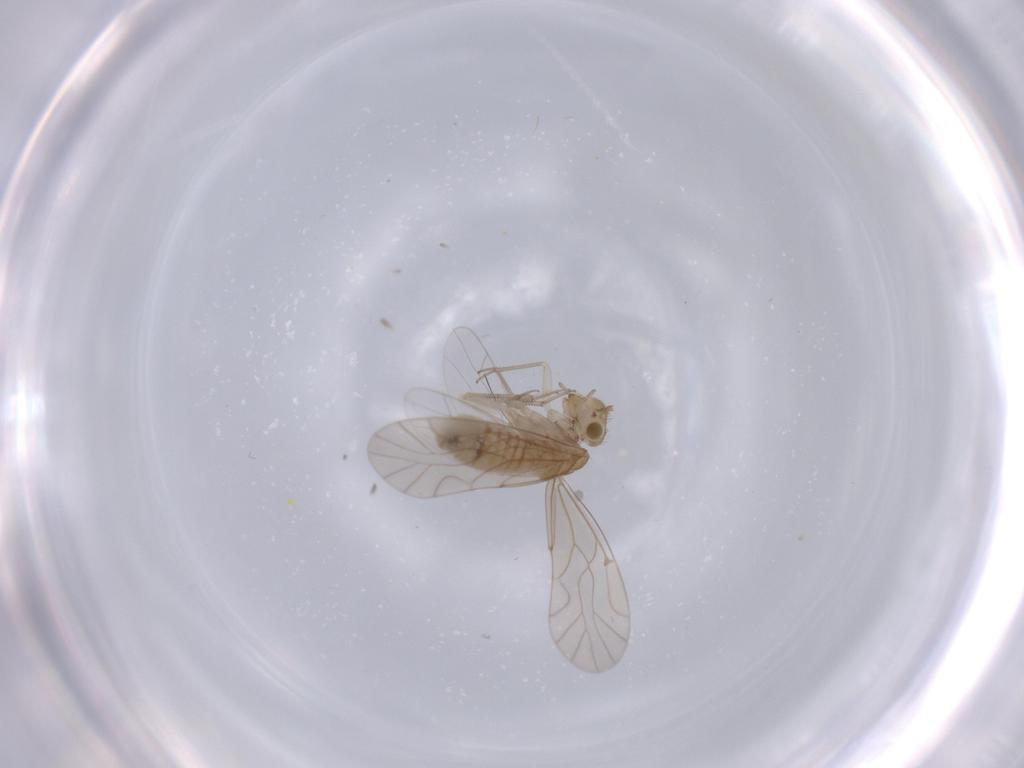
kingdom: Animalia
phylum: Arthropoda
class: Insecta
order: Psocodea
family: Lachesillidae
